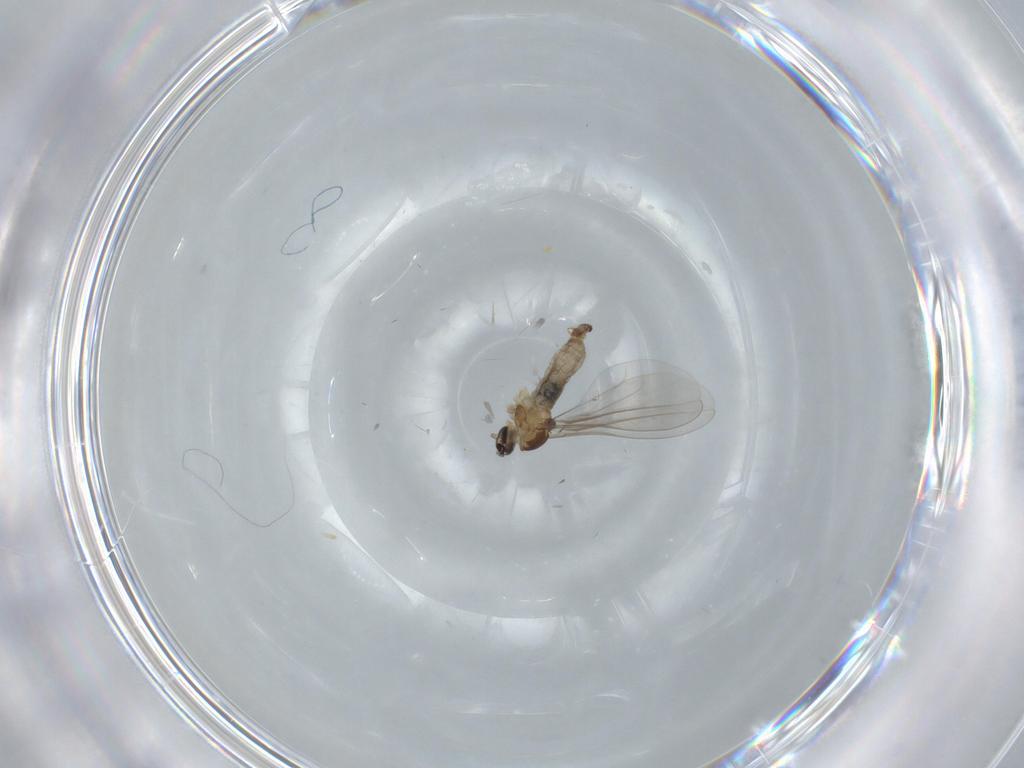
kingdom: Animalia
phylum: Arthropoda
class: Insecta
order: Diptera
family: Cecidomyiidae
